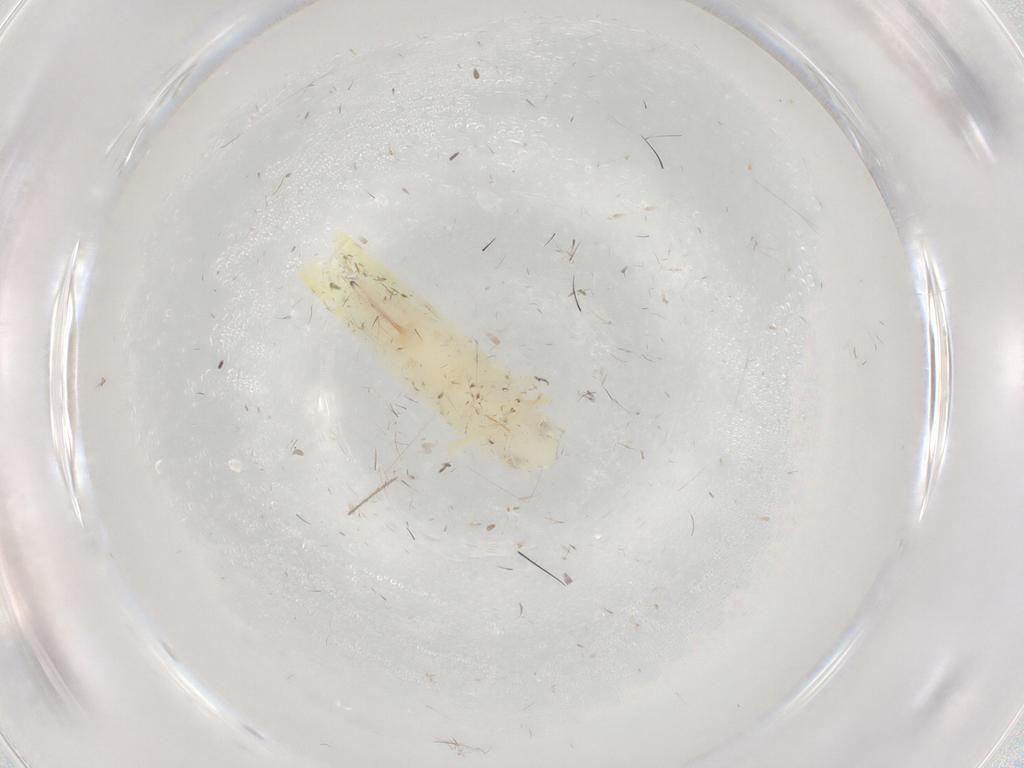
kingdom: Animalia
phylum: Arthropoda
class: Insecta
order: Hemiptera
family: Cicadellidae
